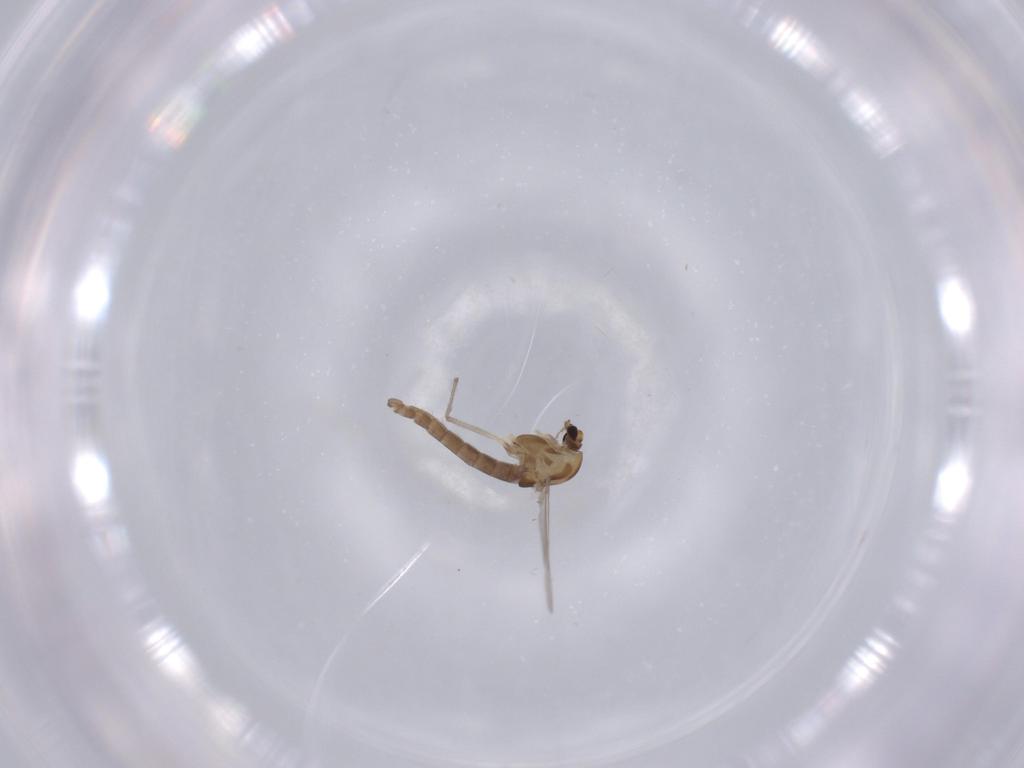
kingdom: Animalia
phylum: Arthropoda
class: Insecta
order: Diptera
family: Chironomidae
